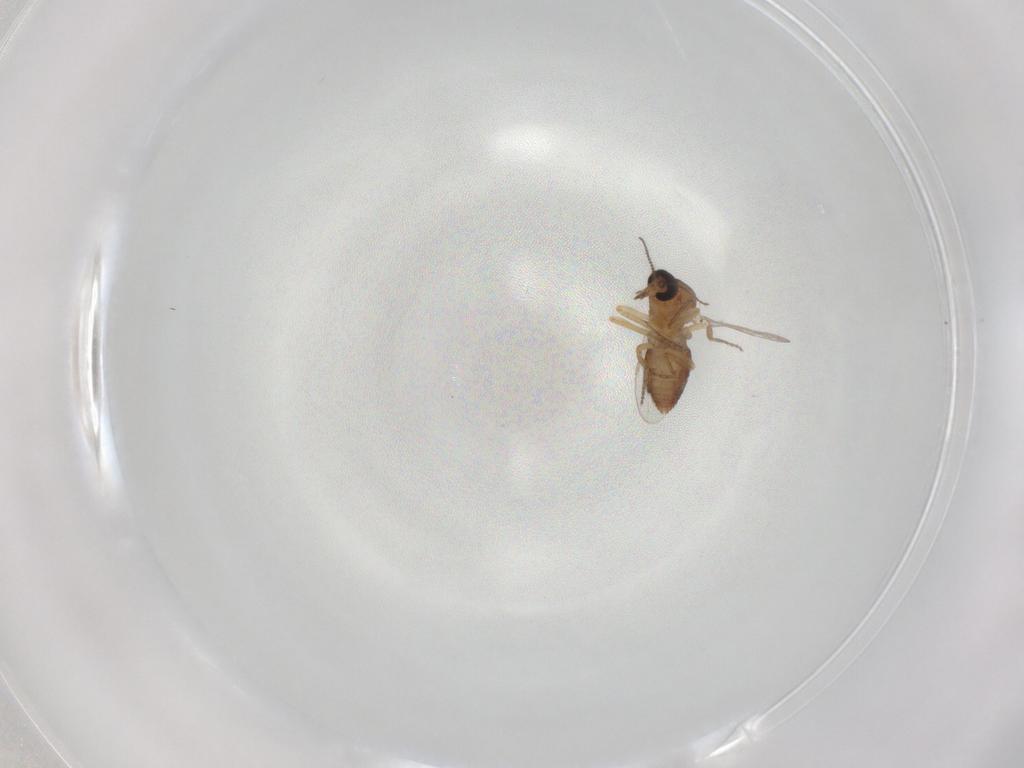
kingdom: Animalia
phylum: Arthropoda
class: Insecta
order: Diptera
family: Ceratopogonidae
